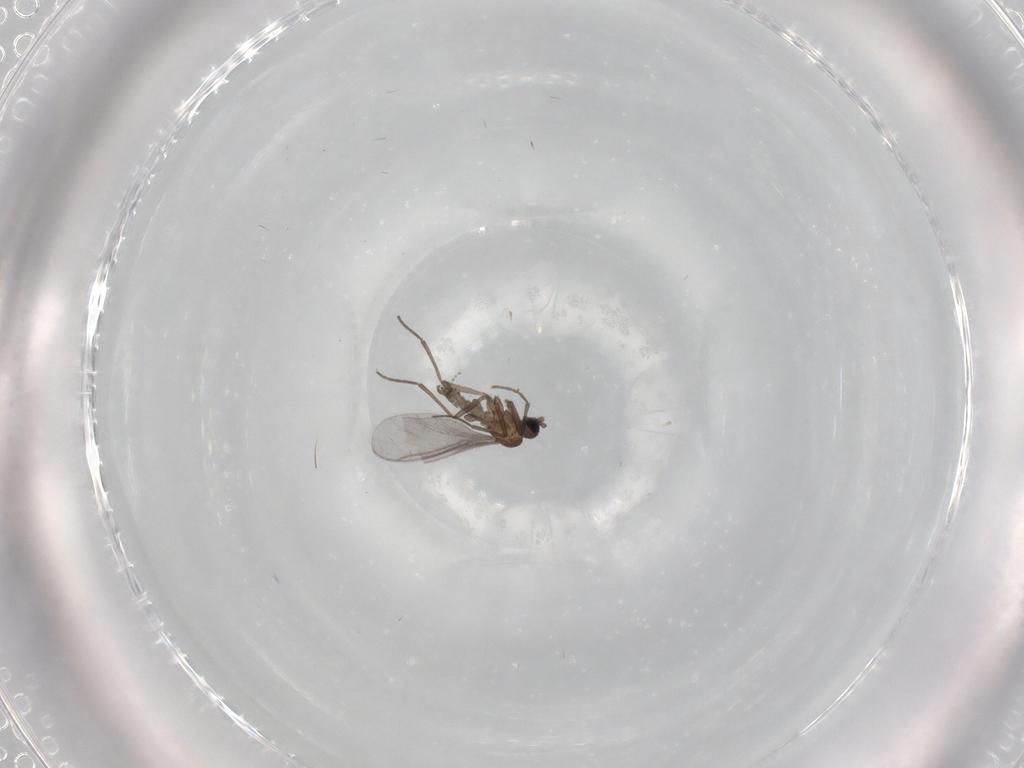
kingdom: Animalia
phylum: Arthropoda
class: Insecta
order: Diptera
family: Sciaridae
